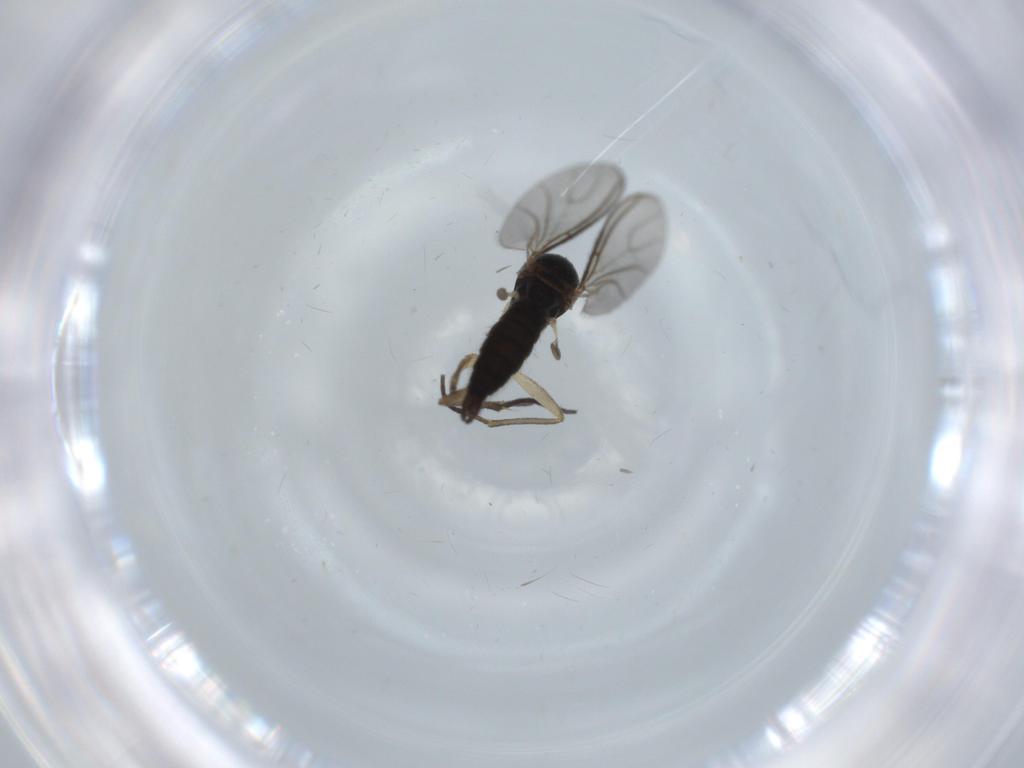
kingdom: Animalia
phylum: Arthropoda
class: Insecta
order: Diptera
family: Sciaridae
